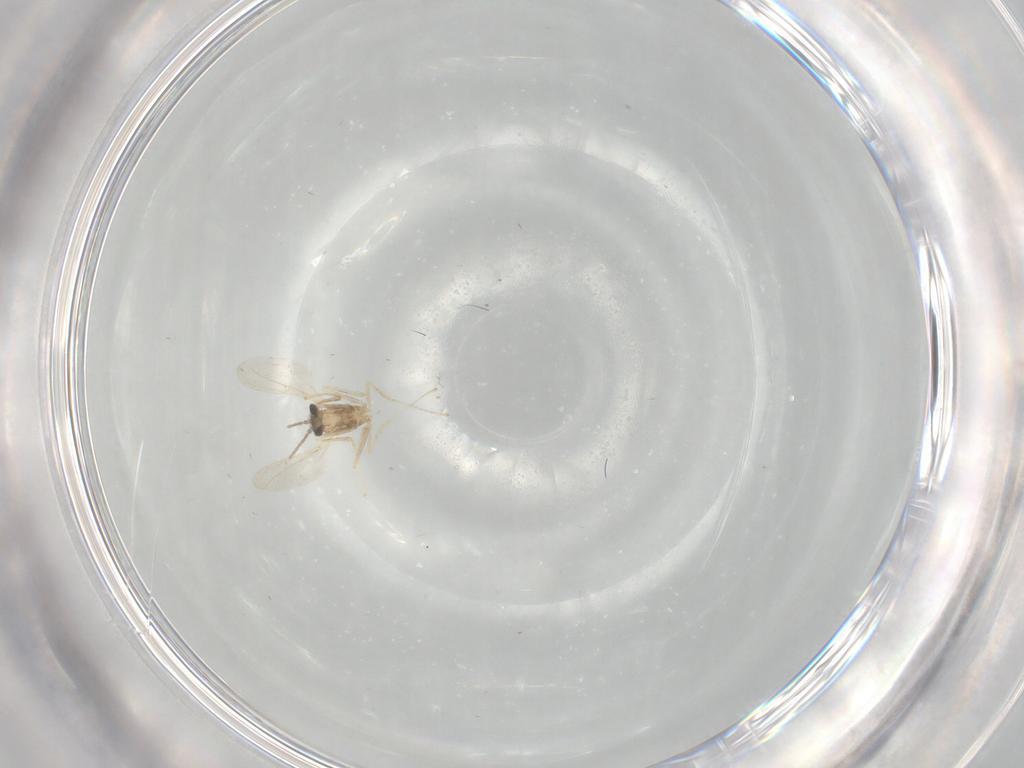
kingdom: Animalia
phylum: Arthropoda
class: Insecta
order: Diptera
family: Cecidomyiidae
